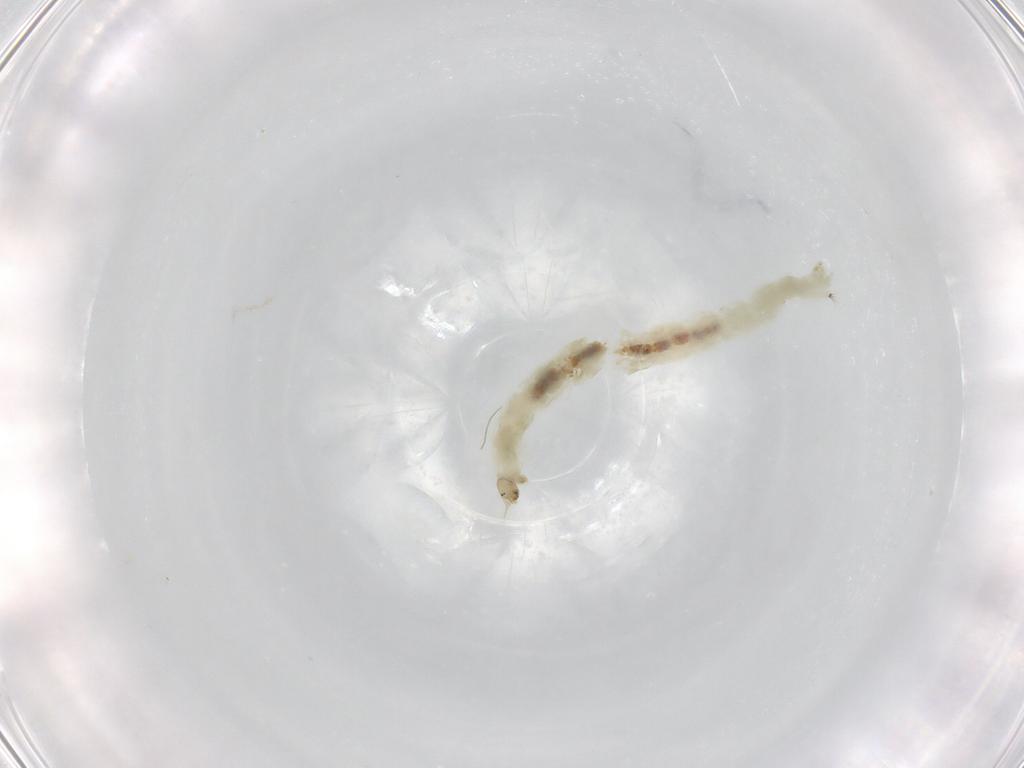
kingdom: Animalia
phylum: Arthropoda
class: Insecta
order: Diptera
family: Chironomidae
